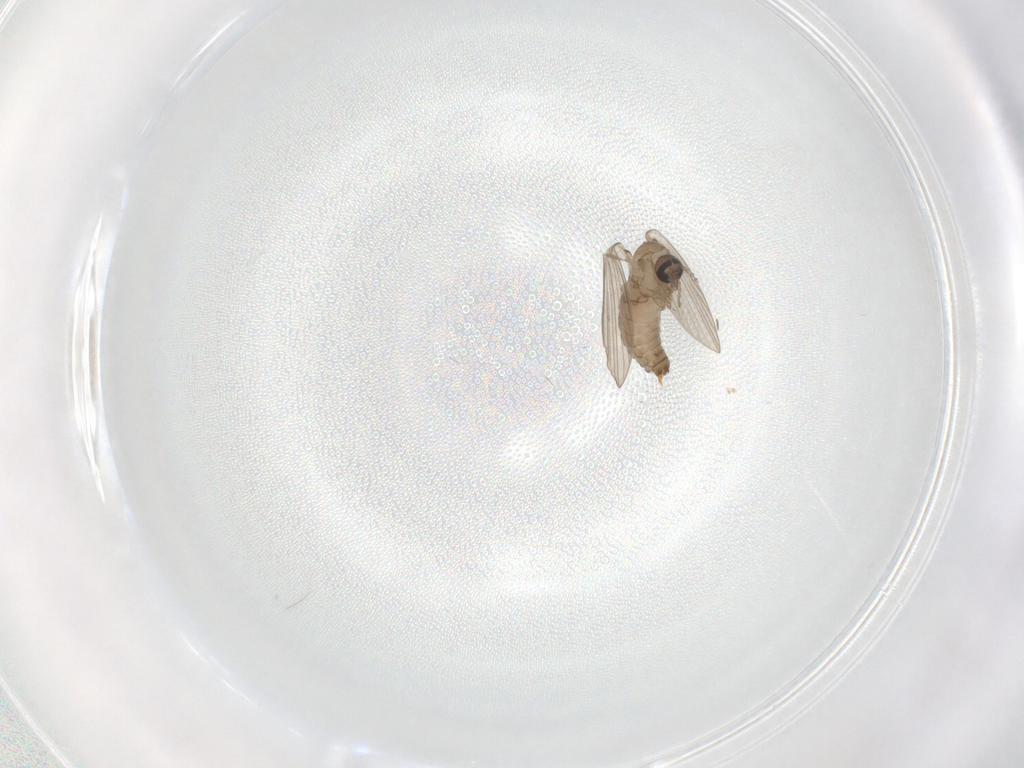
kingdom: Animalia
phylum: Arthropoda
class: Insecta
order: Diptera
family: Psychodidae
